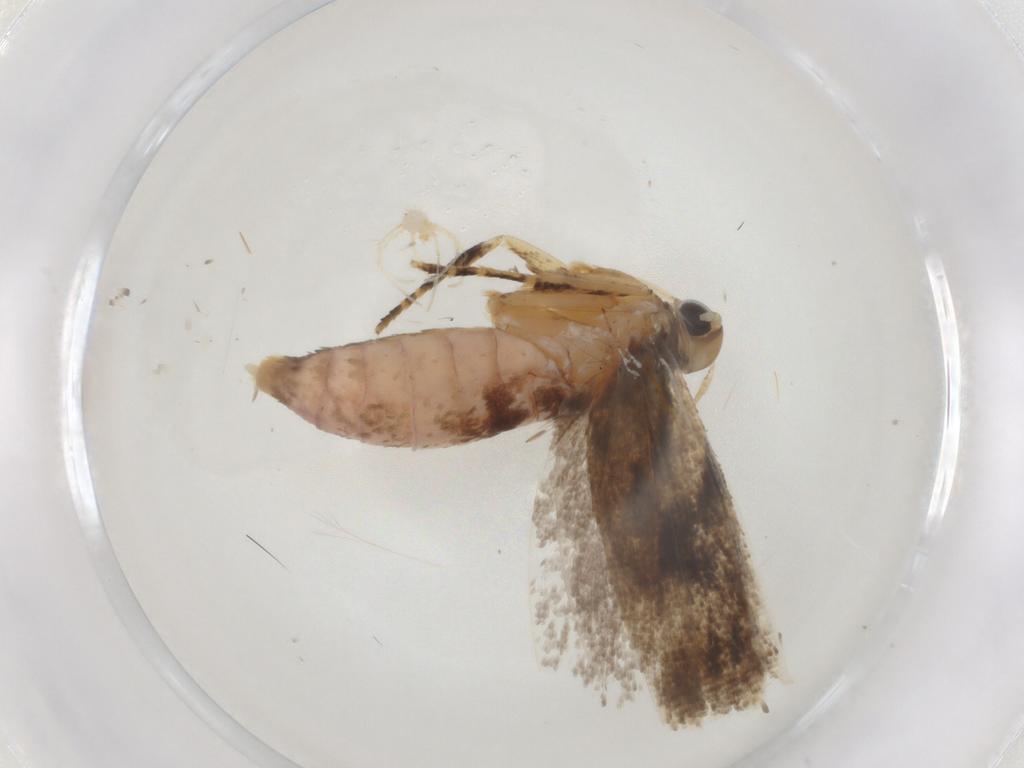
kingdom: Animalia
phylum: Arthropoda
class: Insecta
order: Lepidoptera
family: Gelechiidae
